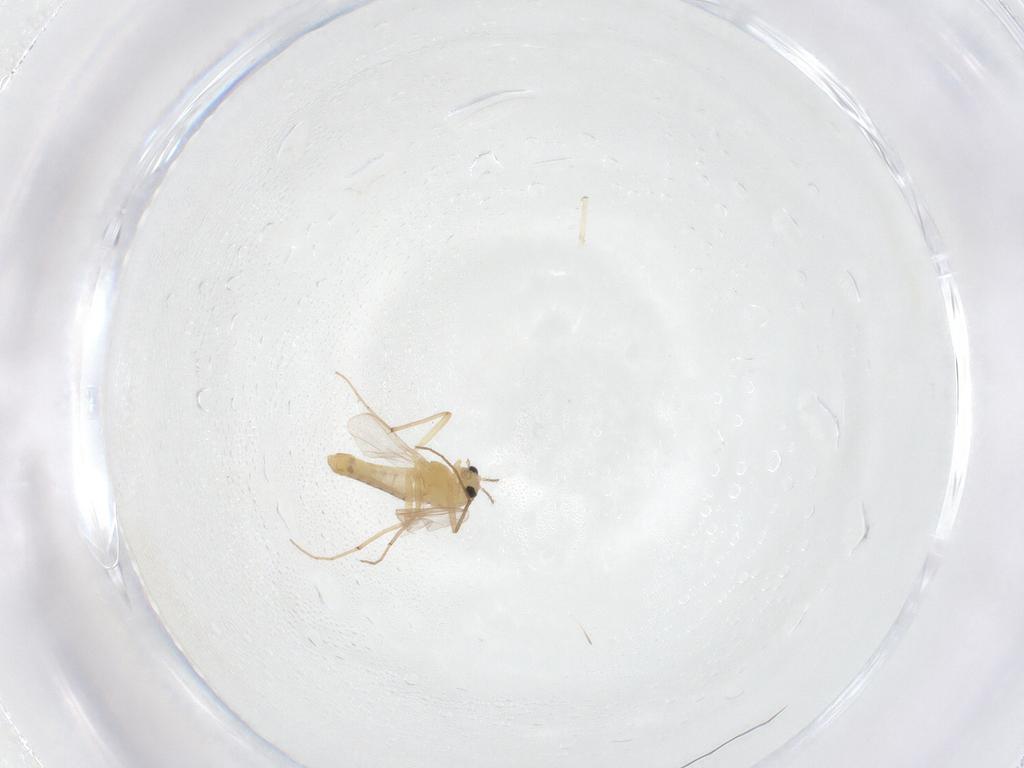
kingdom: Animalia
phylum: Arthropoda
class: Insecta
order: Diptera
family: Chironomidae
